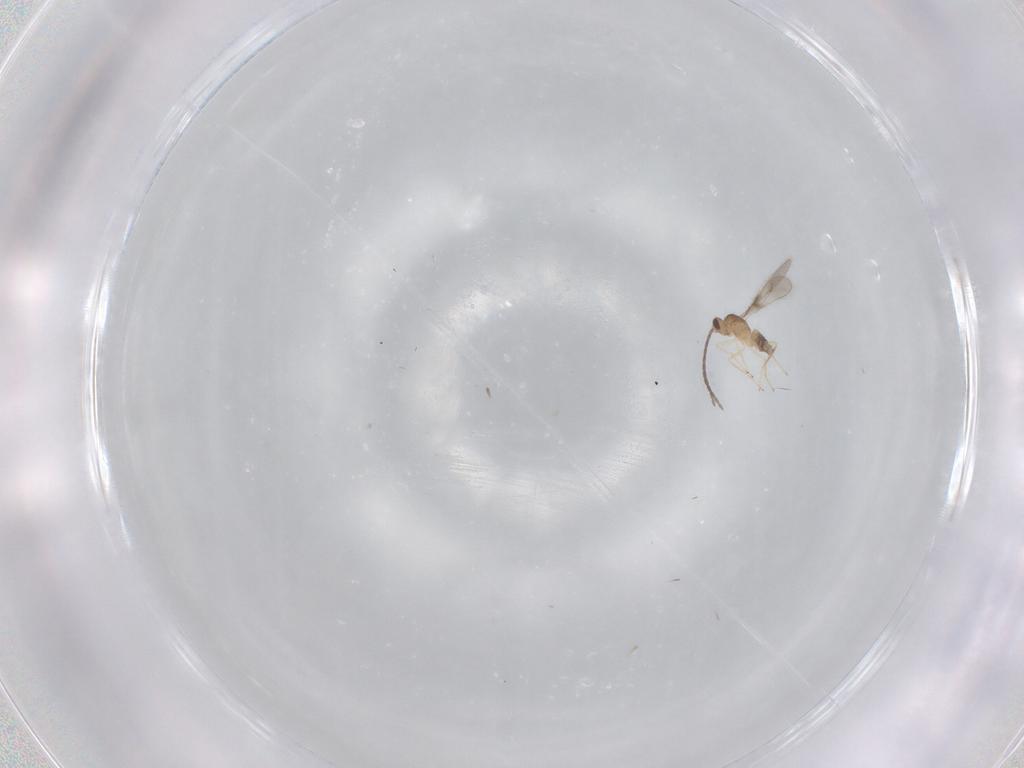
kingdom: Animalia
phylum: Arthropoda
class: Insecta
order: Hymenoptera
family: Mymaridae
